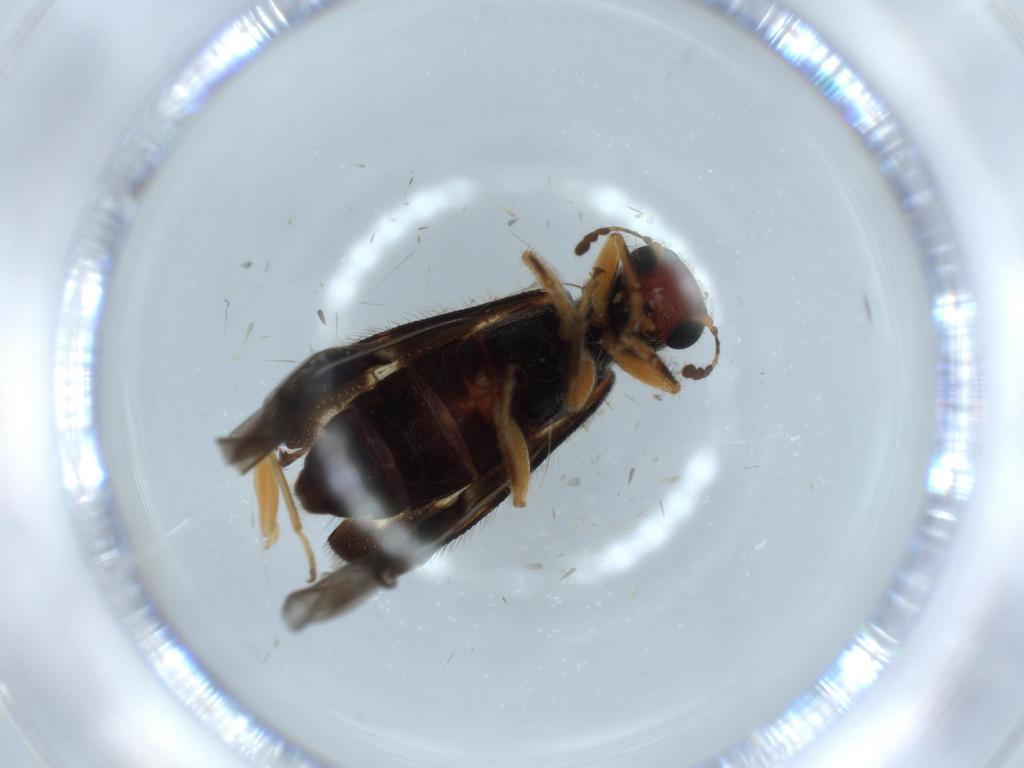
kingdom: Animalia
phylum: Arthropoda
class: Insecta
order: Coleoptera
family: Cleridae
